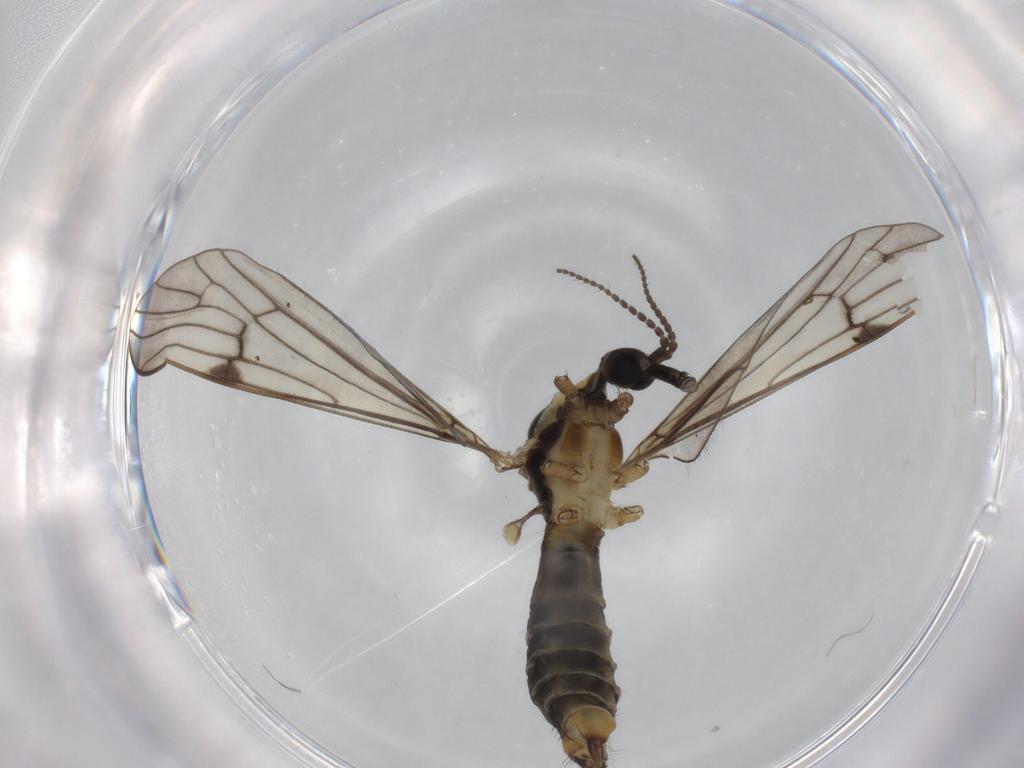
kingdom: Animalia
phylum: Arthropoda
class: Insecta
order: Diptera
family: Limoniidae
